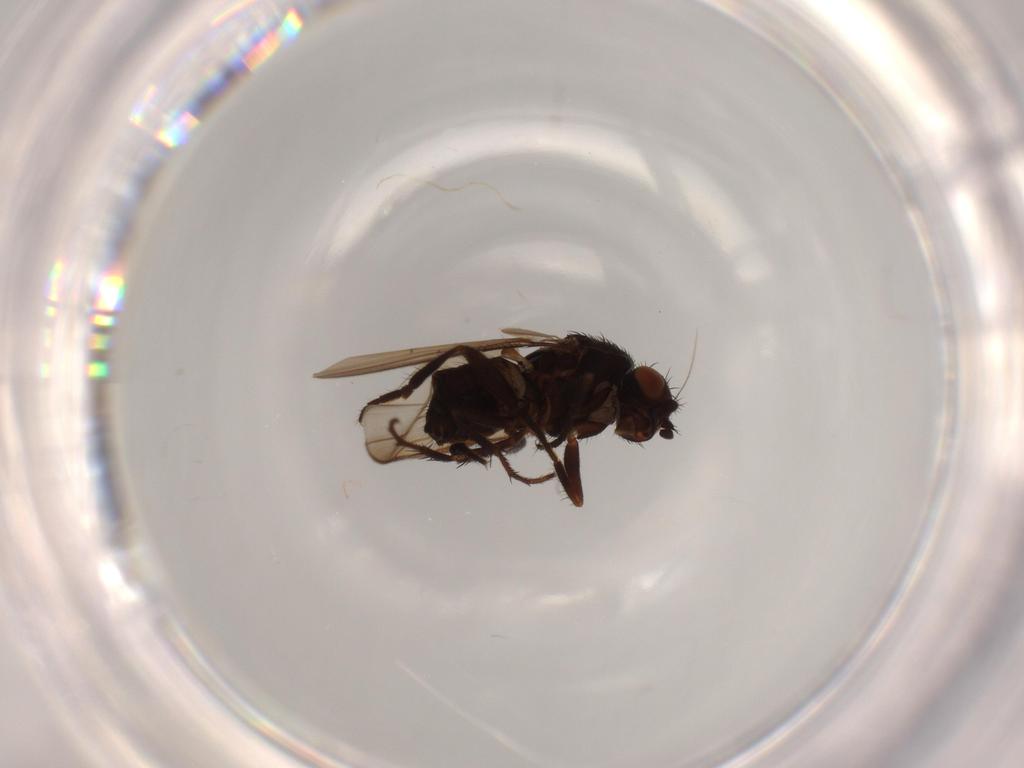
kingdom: Animalia
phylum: Arthropoda
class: Insecta
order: Diptera
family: Sphaeroceridae
